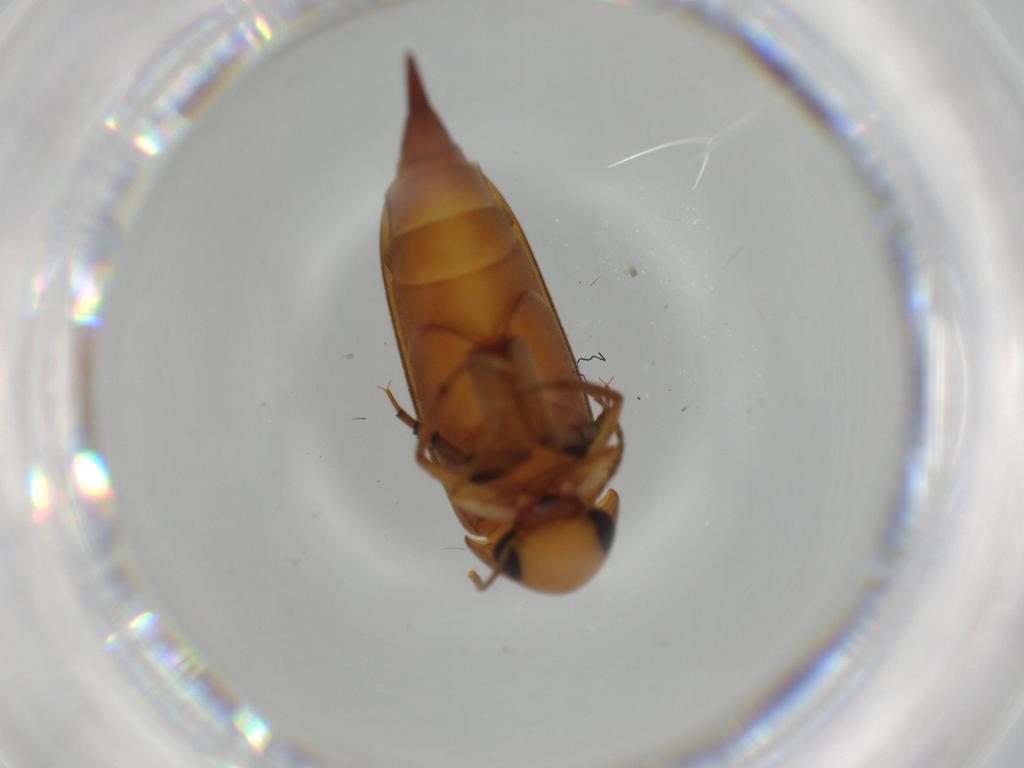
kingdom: Animalia
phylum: Arthropoda
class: Insecta
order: Coleoptera
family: Mordellidae
